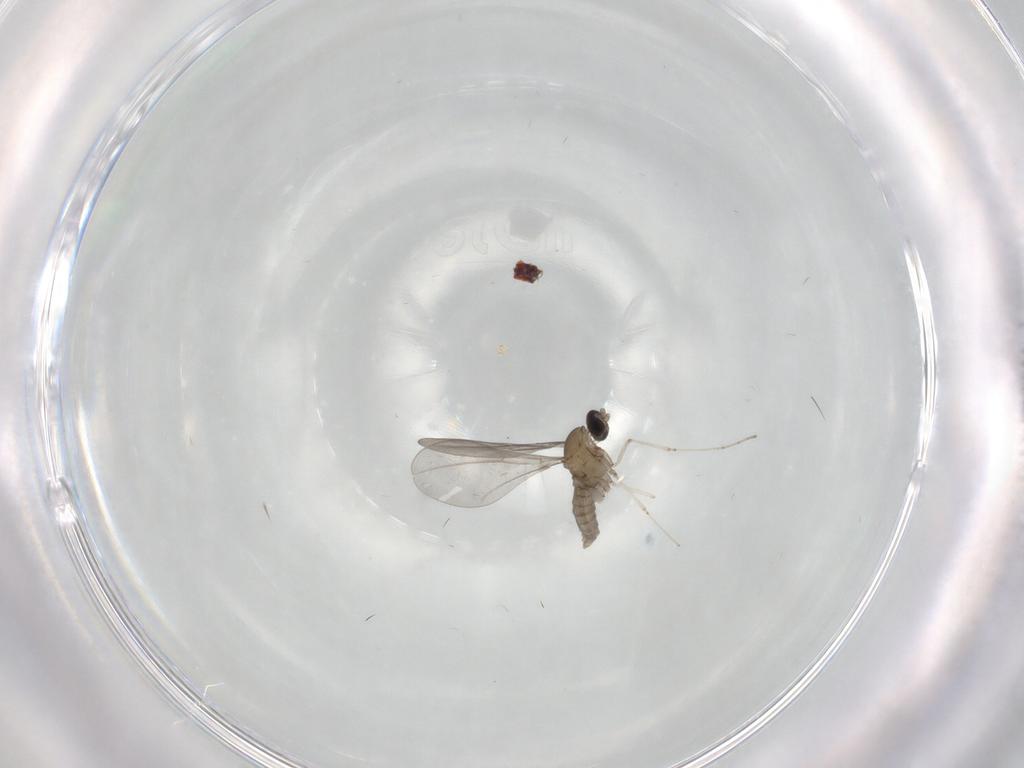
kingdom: Animalia
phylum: Arthropoda
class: Insecta
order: Diptera
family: Cecidomyiidae
